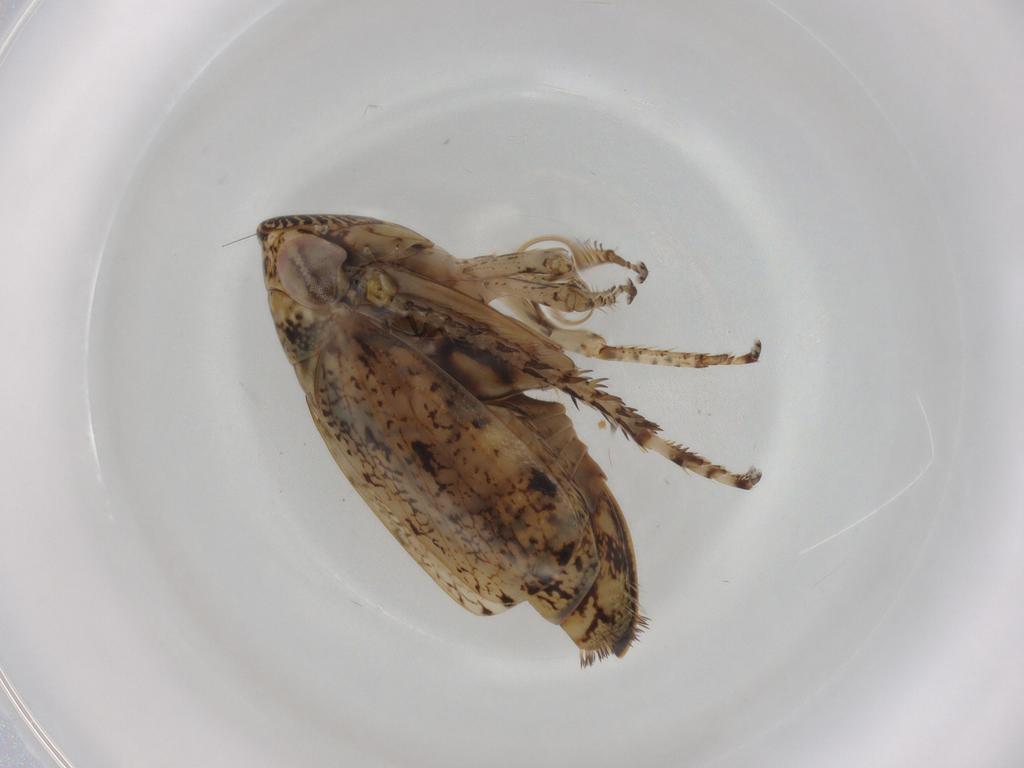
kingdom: Animalia
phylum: Arthropoda
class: Insecta
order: Hemiptera
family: Cicadellidae
